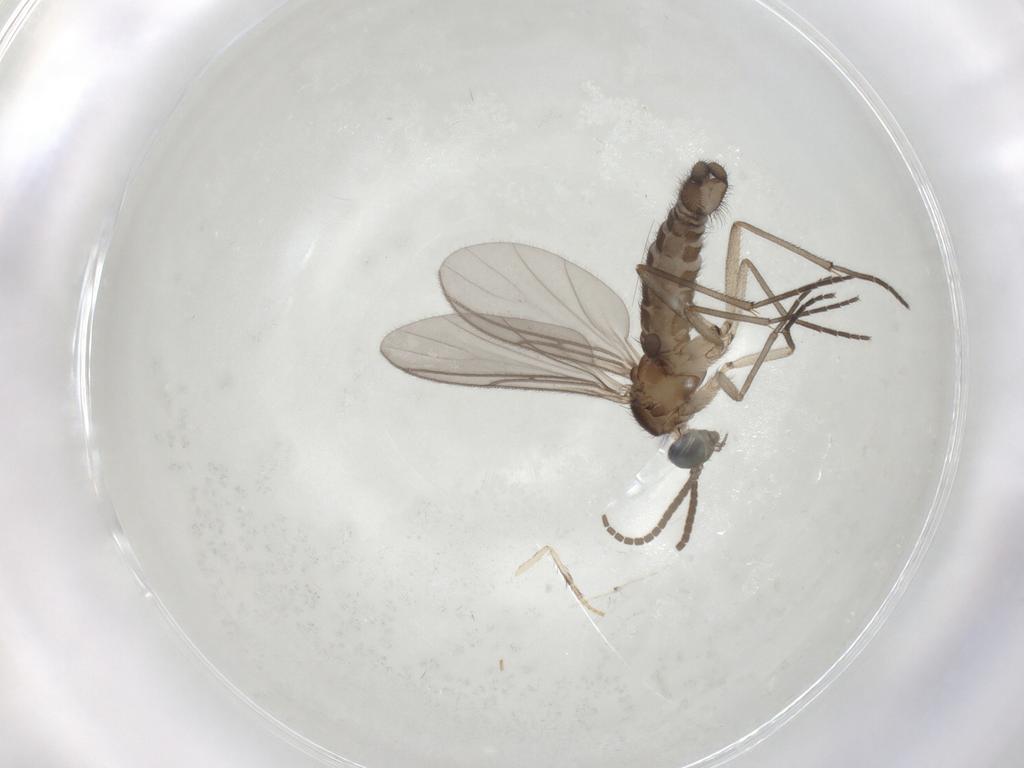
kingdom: Animalia
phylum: Arthropoda
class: Insecta
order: Diptera
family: Sciaridae
